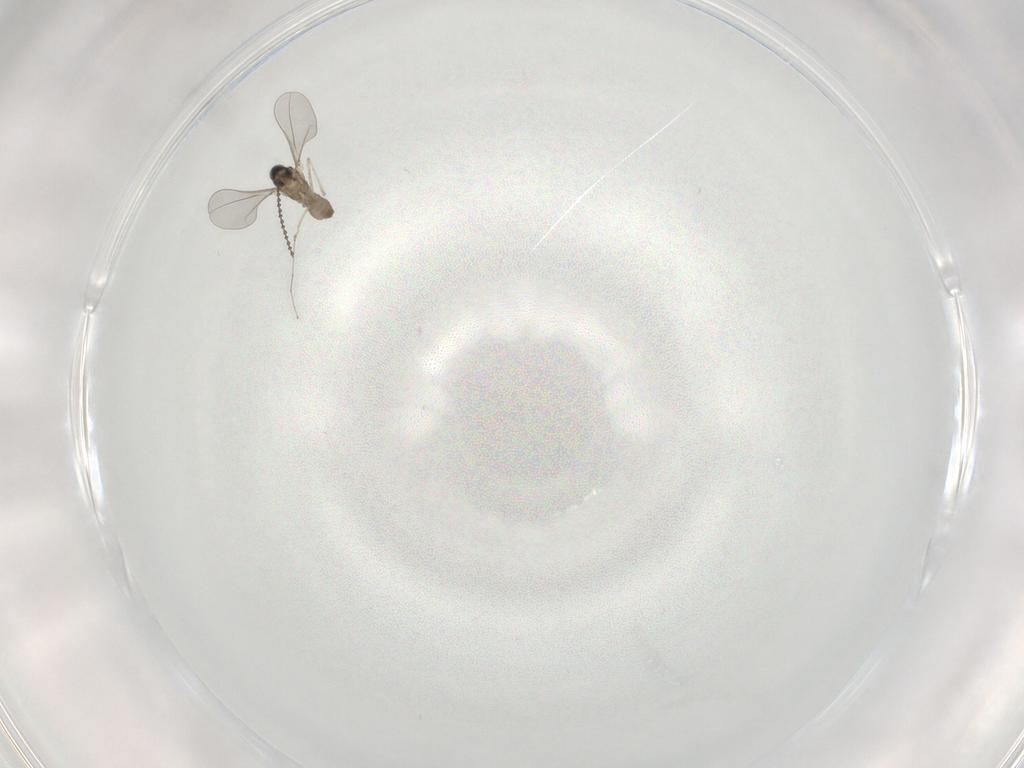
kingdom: Animalia
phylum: Arthropoda
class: Insecta
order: Diptera
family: Cecidomyiidae
